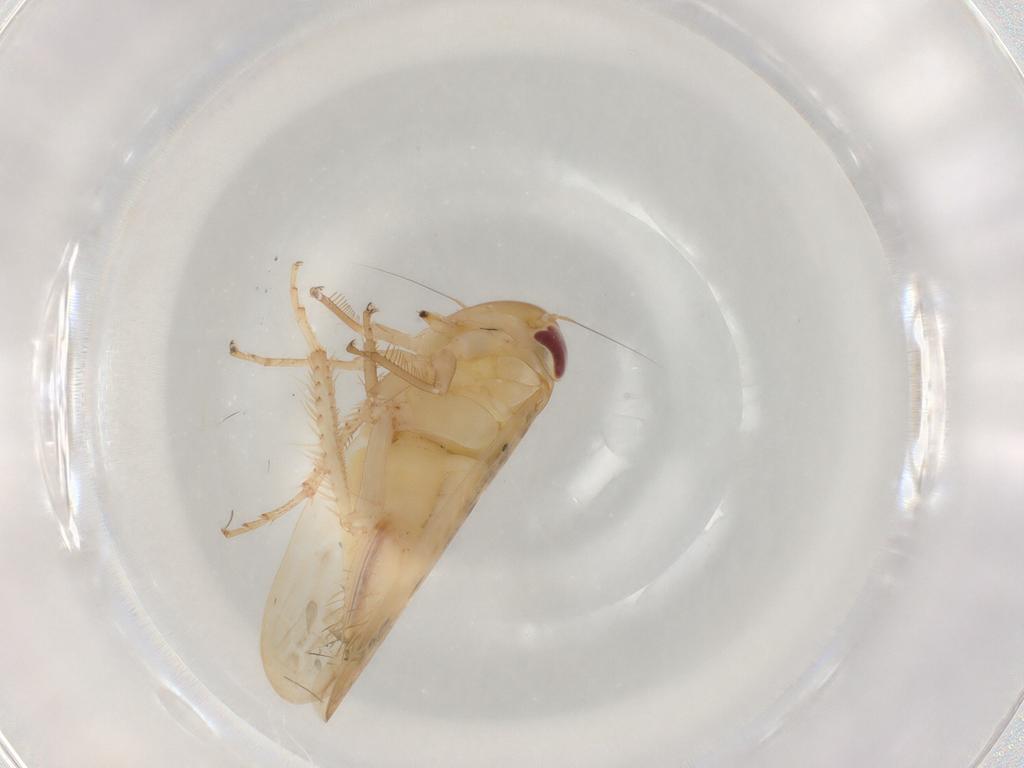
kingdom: Animalia
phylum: Arthropoda
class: Insecta
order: Hemiptera
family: Cicadellidae
